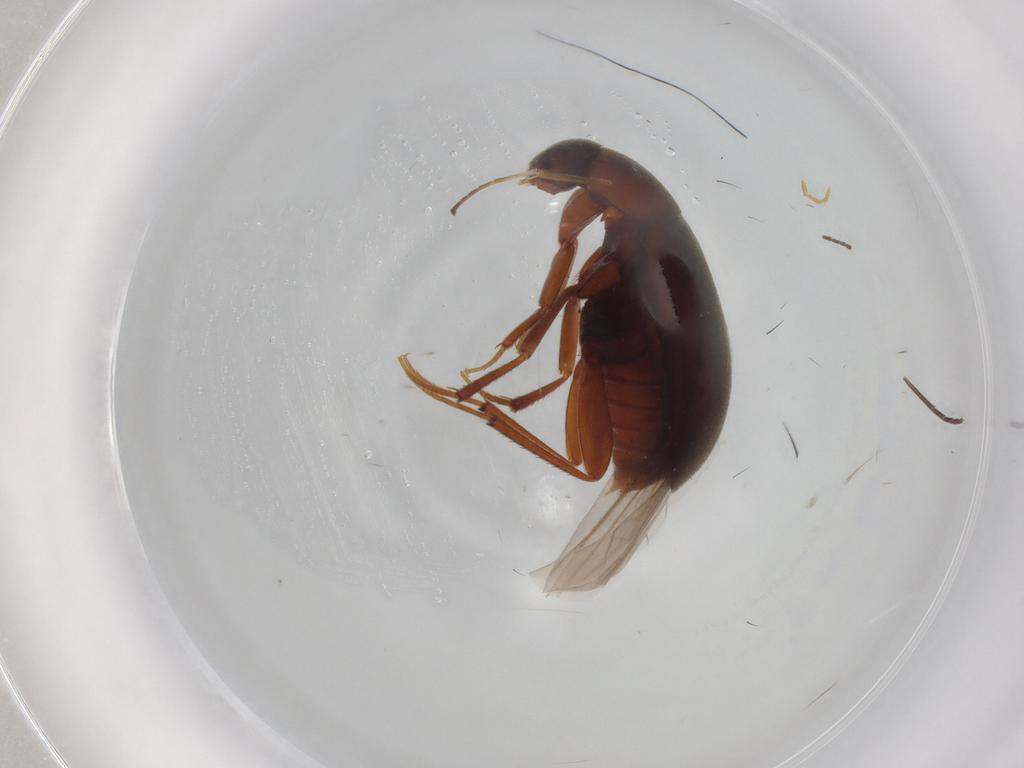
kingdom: Animalia
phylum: Arthropoda
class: Insecta
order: Coleoptera
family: Leiodidae
